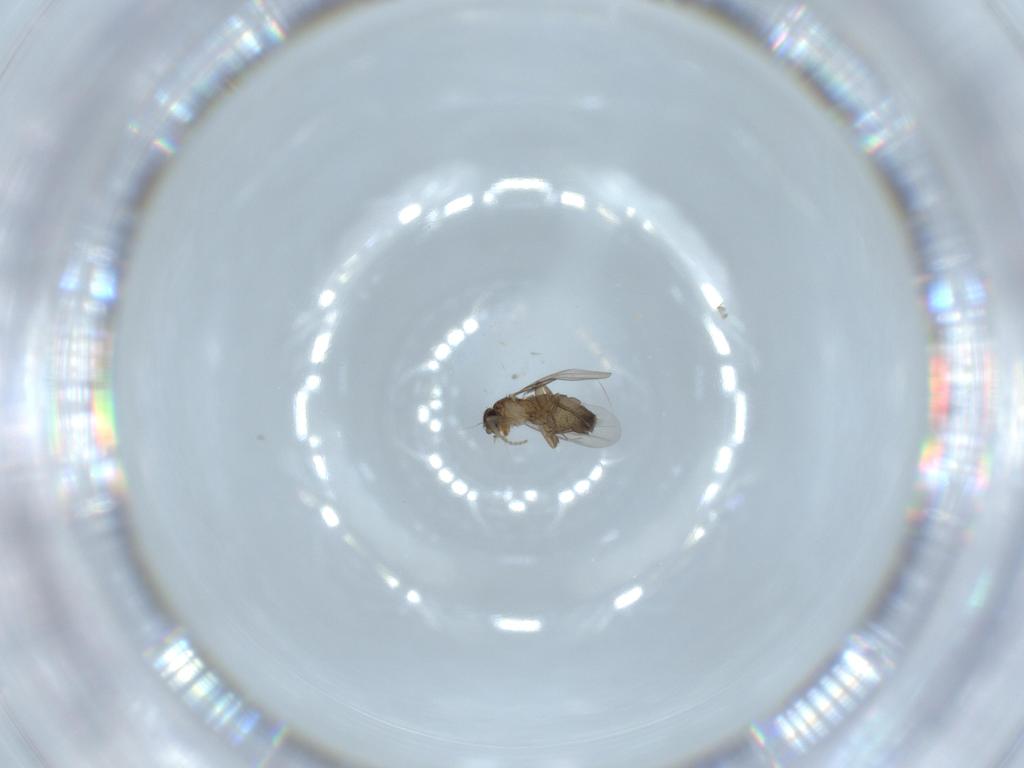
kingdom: Animalia
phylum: Arthropoda
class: Insecta
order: Diptera
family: Phoridae
